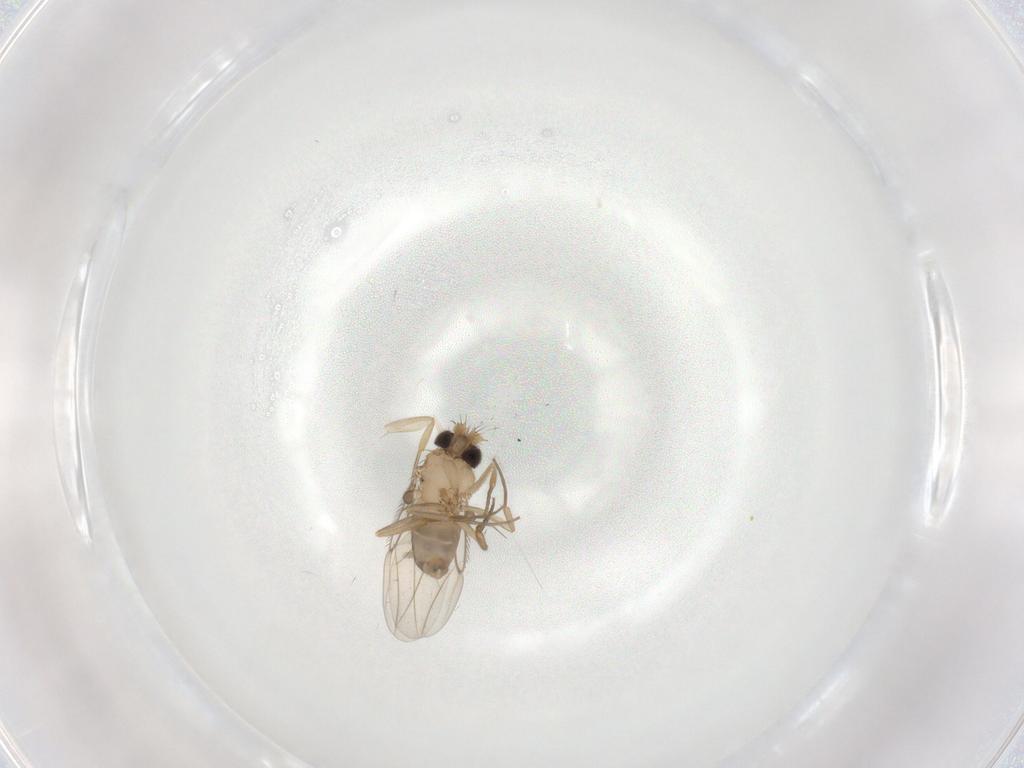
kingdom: Animalia
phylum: Arthropoda
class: Insecta
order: Diptera
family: Cecidomyiidae
